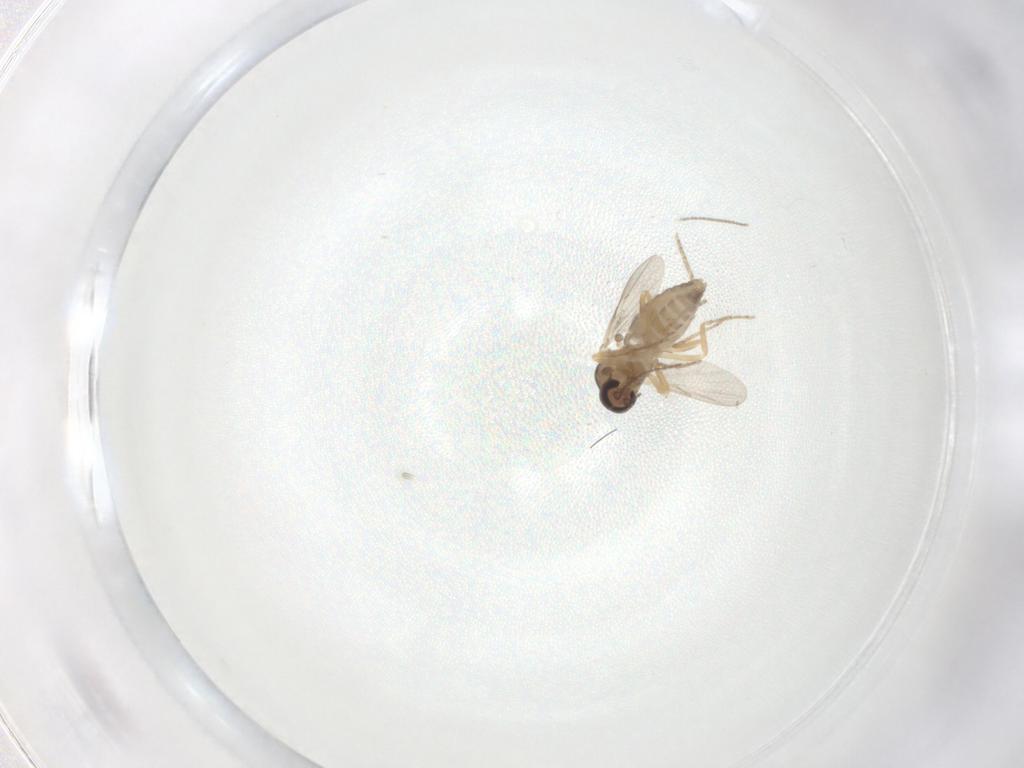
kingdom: Animalia
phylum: Arthropoda
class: Insecta
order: Diptera
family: Ceratopogonidae
